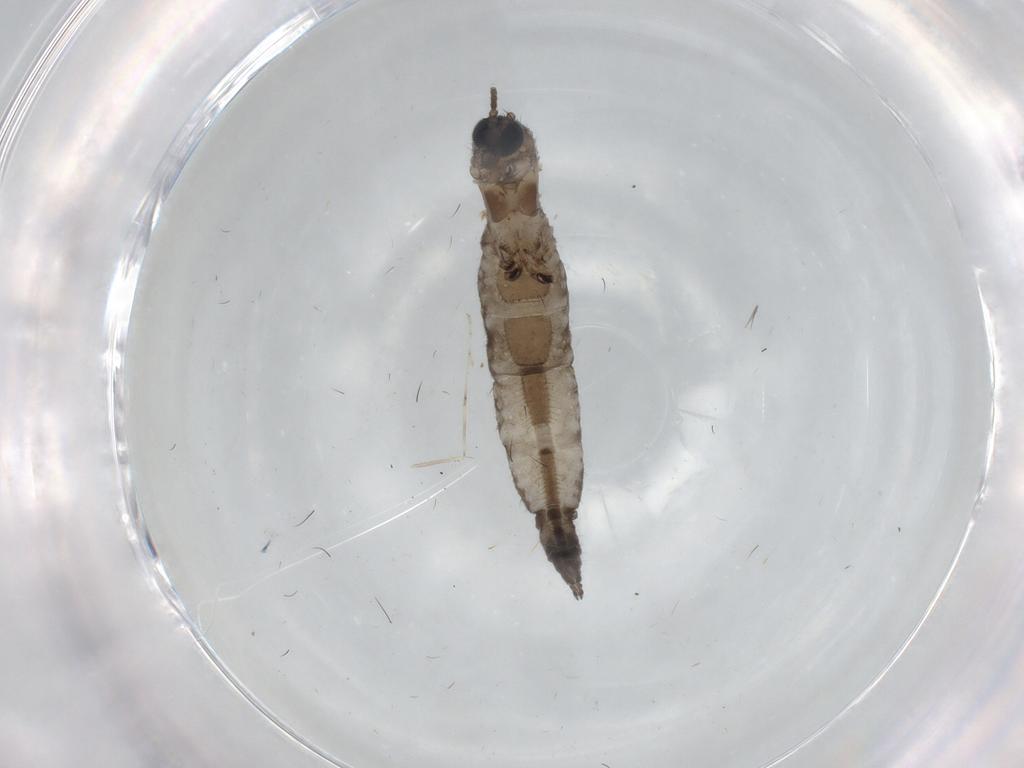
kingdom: Animalia
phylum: Arthropoda
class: Insecta
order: Diptera
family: Sciaridae
